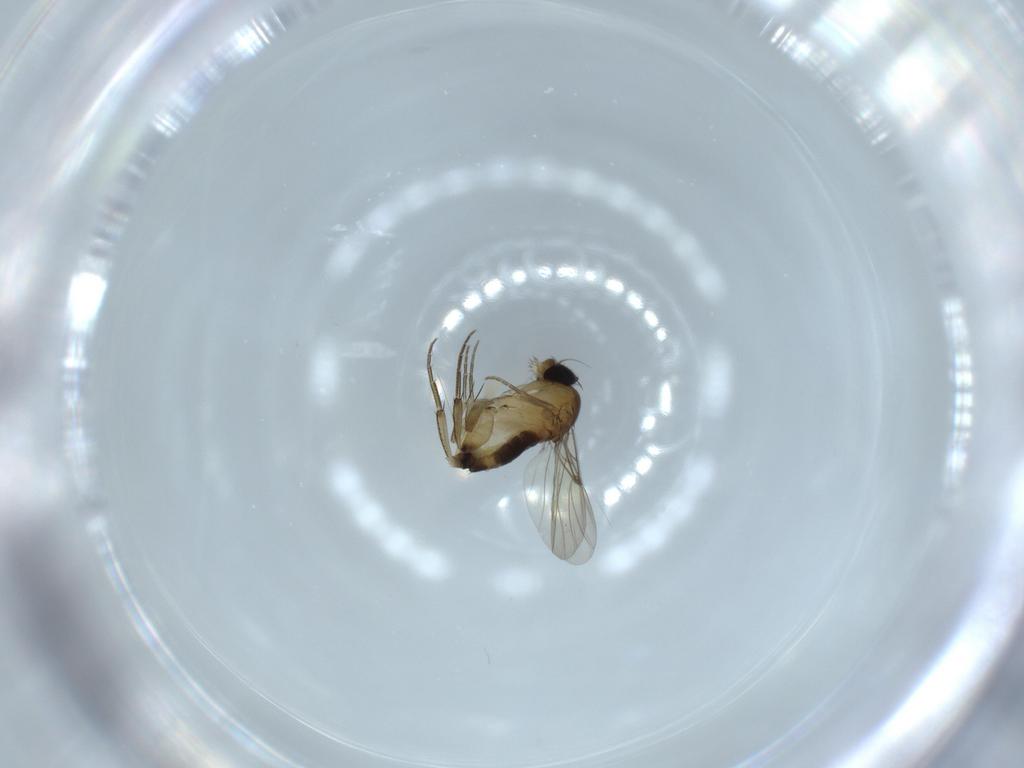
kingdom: Animalia
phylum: Arthropoda
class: Insecta
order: Diptera
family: Phoridae
